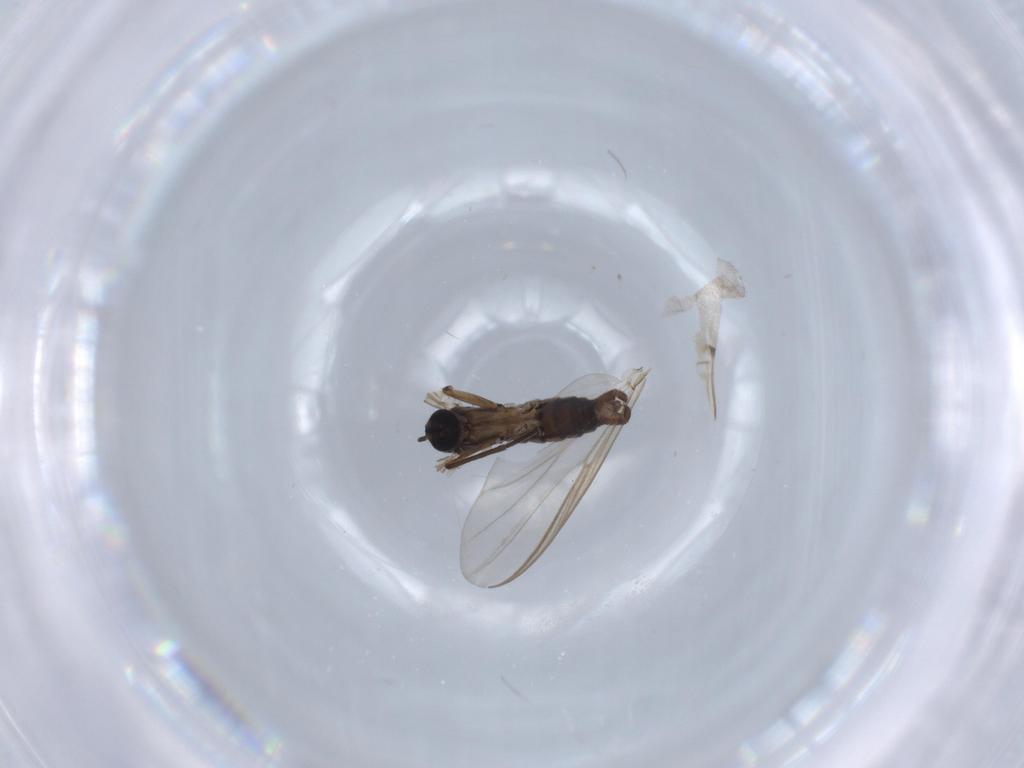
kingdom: Animalia
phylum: Arthropoda
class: Insecta
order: Diptera
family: Sciaridae
